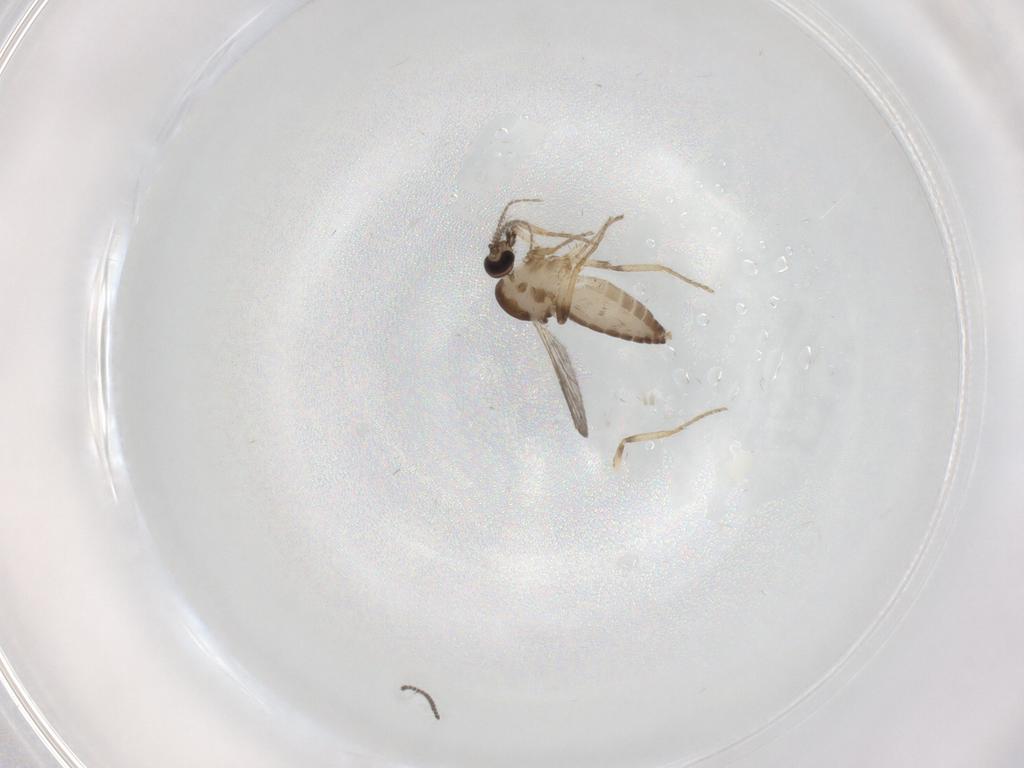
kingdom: Animalia
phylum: Arthropoda
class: Insecta
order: Diptera
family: Ceratopogonidae
